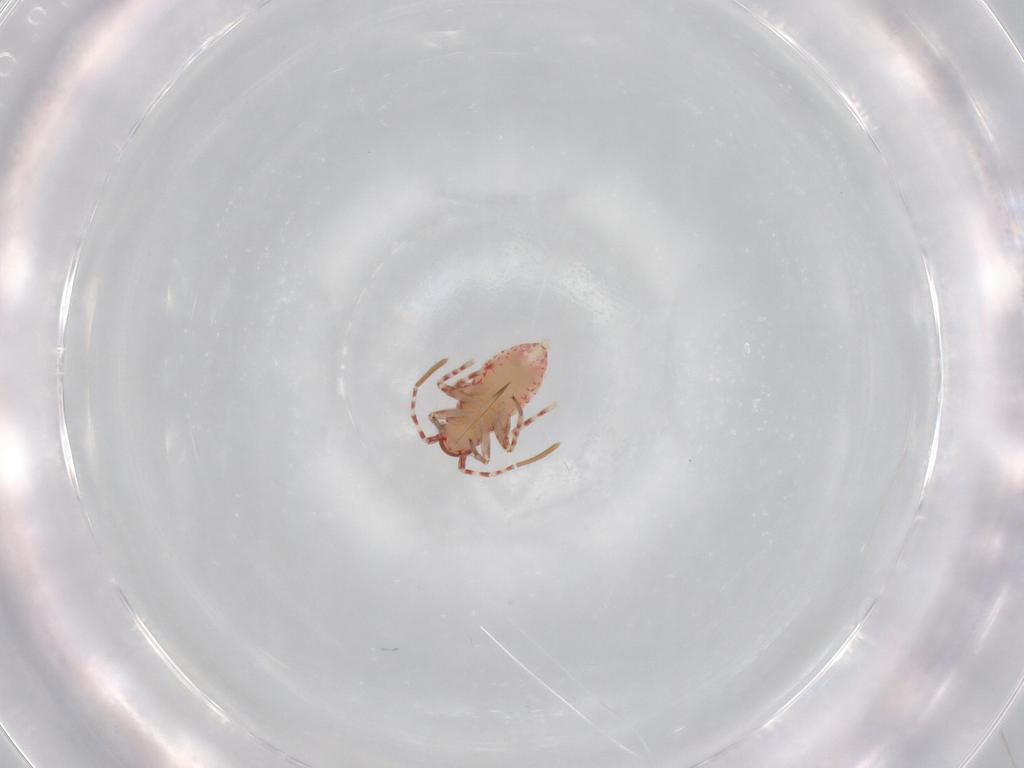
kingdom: Animalia
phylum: Arthropoda
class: Insecta
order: Hemiptera
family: Miridae
